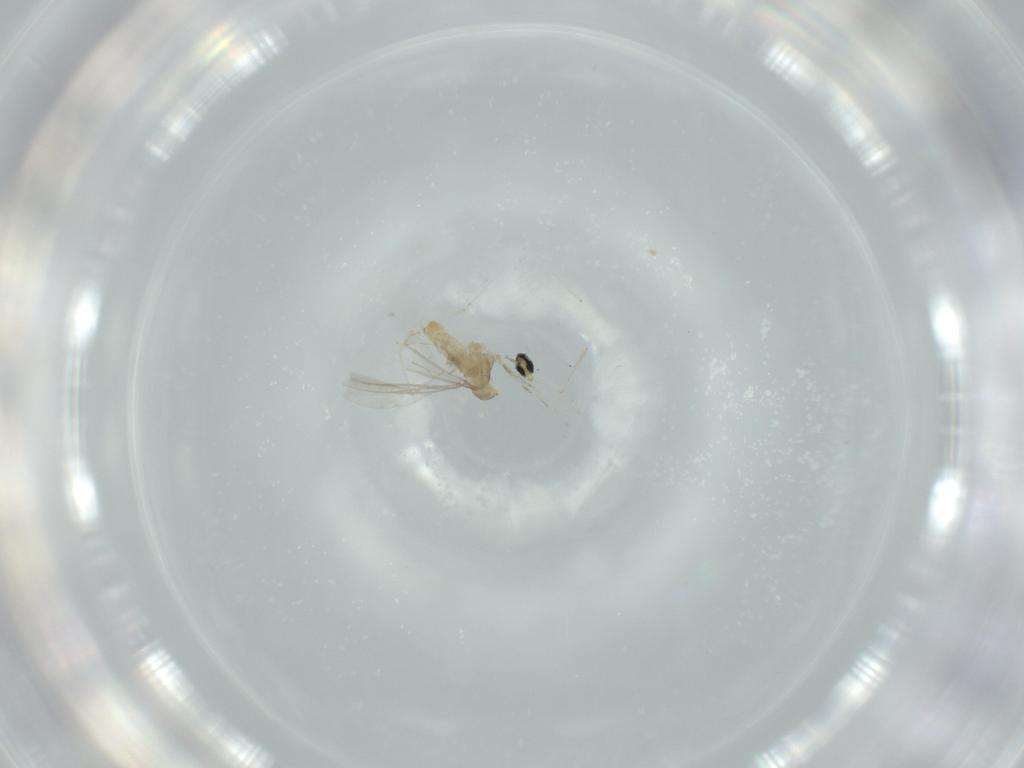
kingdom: Animalia
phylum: Arthropoda
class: Insecta
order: Diptera
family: Cecidomyiidae
